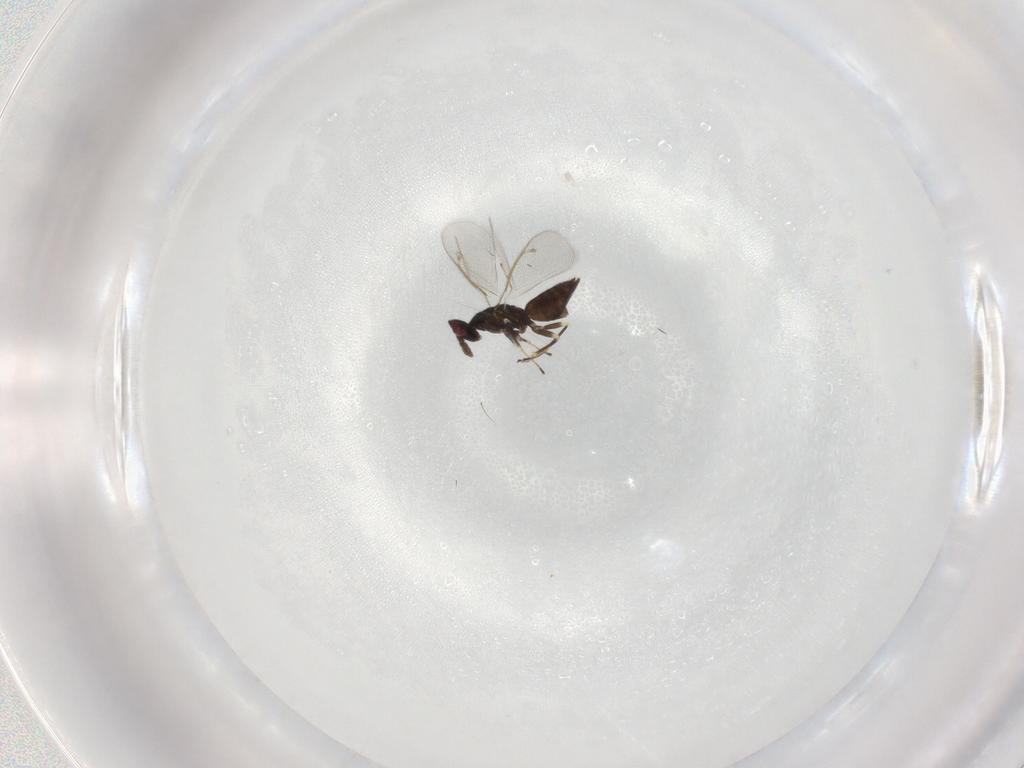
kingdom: Animalia
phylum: Arthropoda
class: Insecta
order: Hymenoptera
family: Eulophidae
